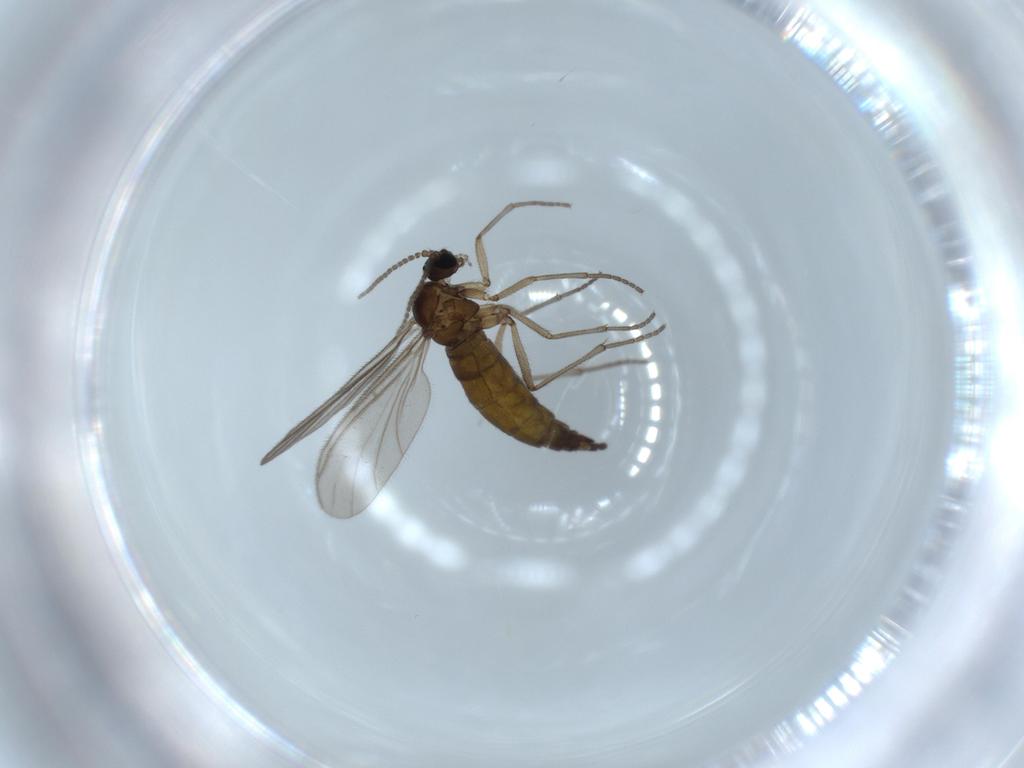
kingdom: Animalia
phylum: Arthropoda
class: Insecta
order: Diptera
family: Sciaridae
